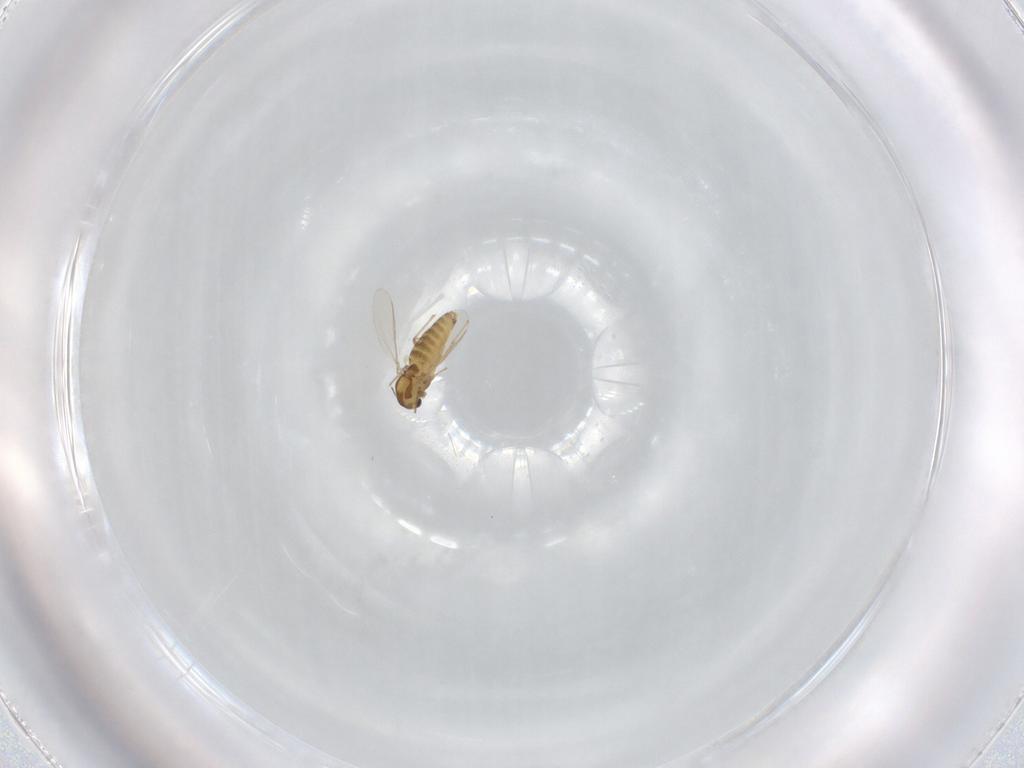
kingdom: Animalia
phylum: Arthropoda
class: Insecta
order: Diptera
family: Chironomidae
